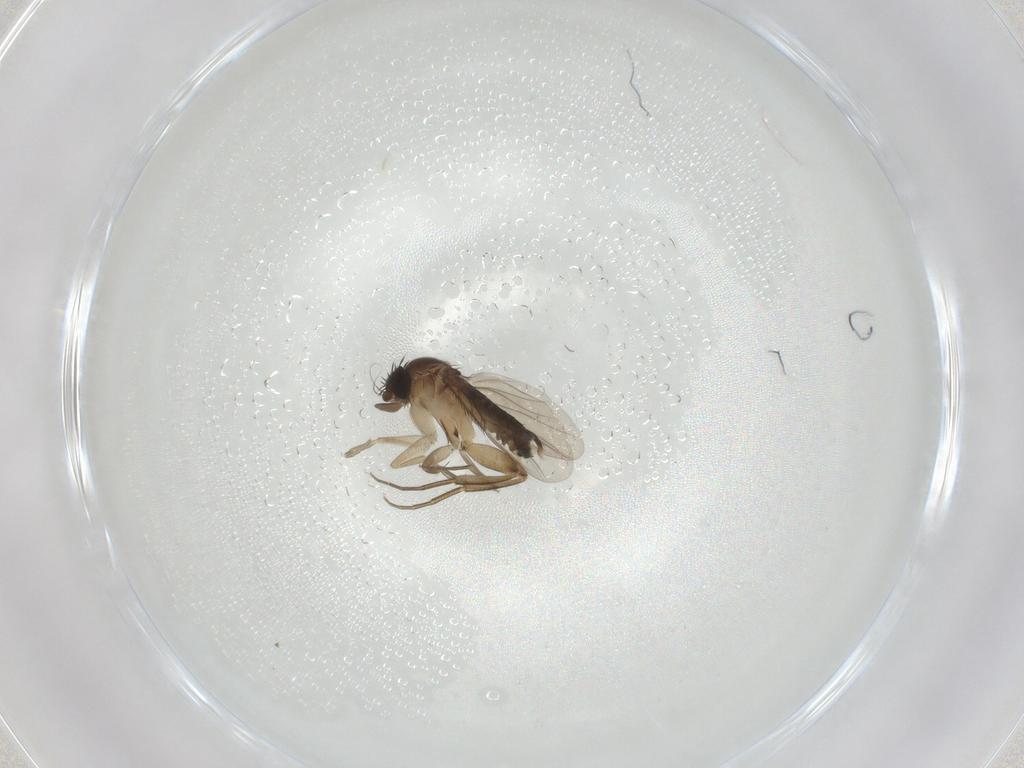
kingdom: Animalia
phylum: Arthropoda
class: Insecta
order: Diptera
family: Phoridae
